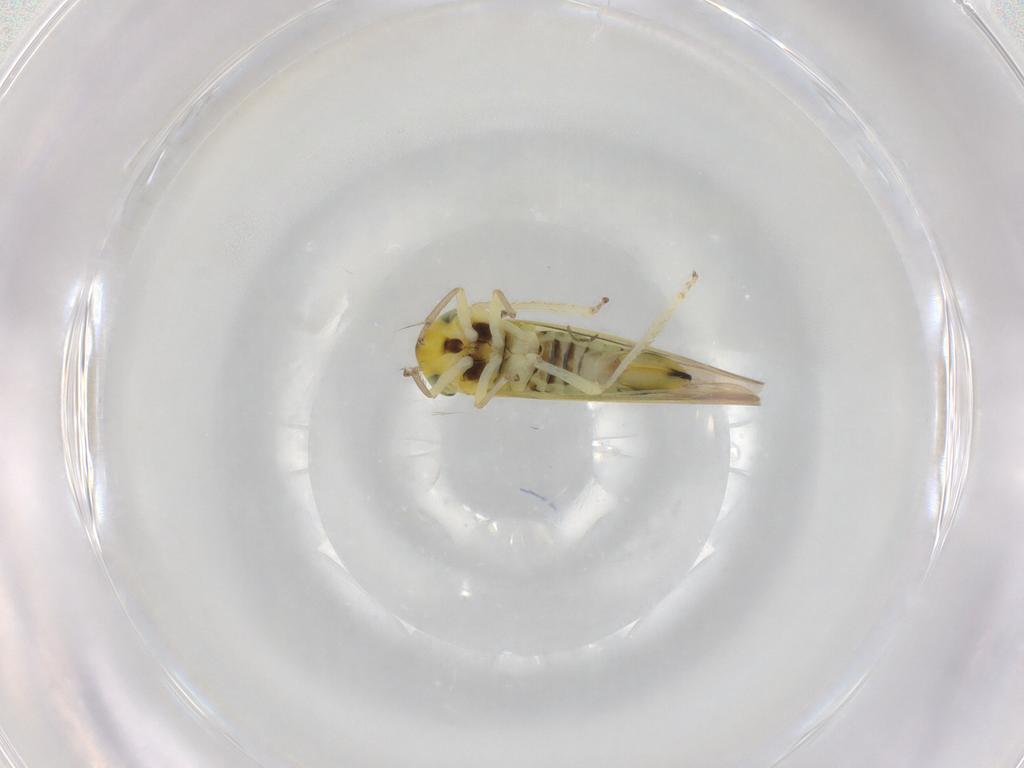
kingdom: Animalia
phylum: Arthropoda
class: Insecta
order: Hemiptera
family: Cicadellidae
